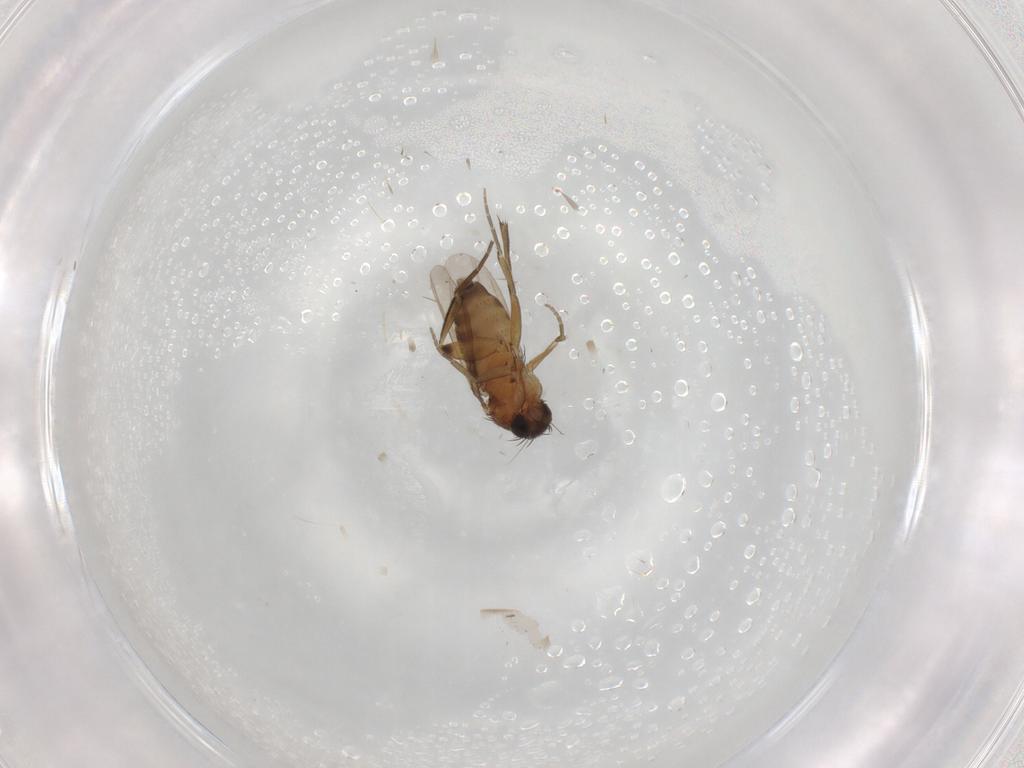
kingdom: Animalia
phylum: Arthropoda
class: Insecta
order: Diptera
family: Phoridae
